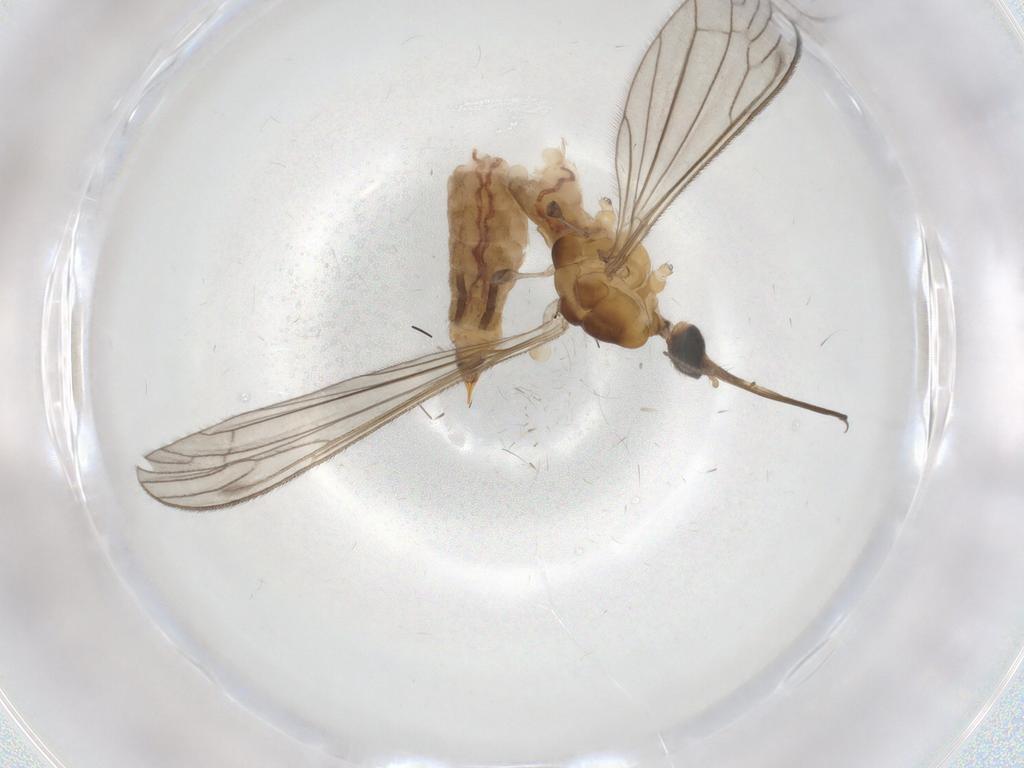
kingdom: Animalia
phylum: Arthropoda
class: Insecta
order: Diptera
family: Limoniidae
